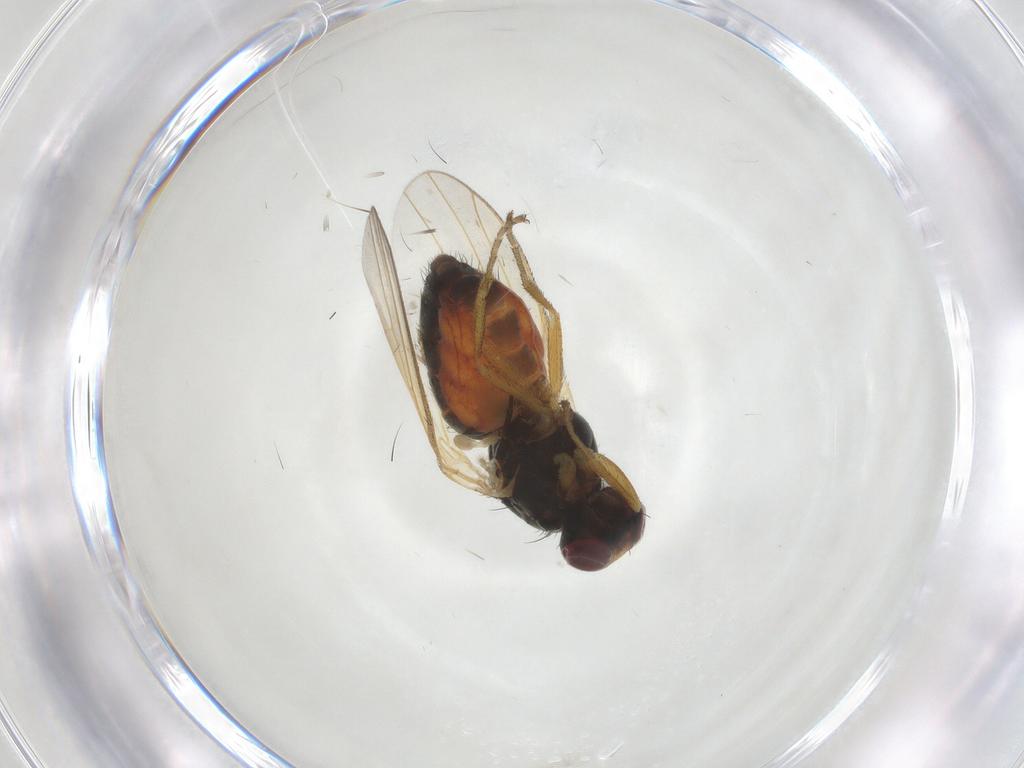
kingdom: Animalia
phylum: Arthropoda
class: Insecta
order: Diptera
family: Heleomyzidae
